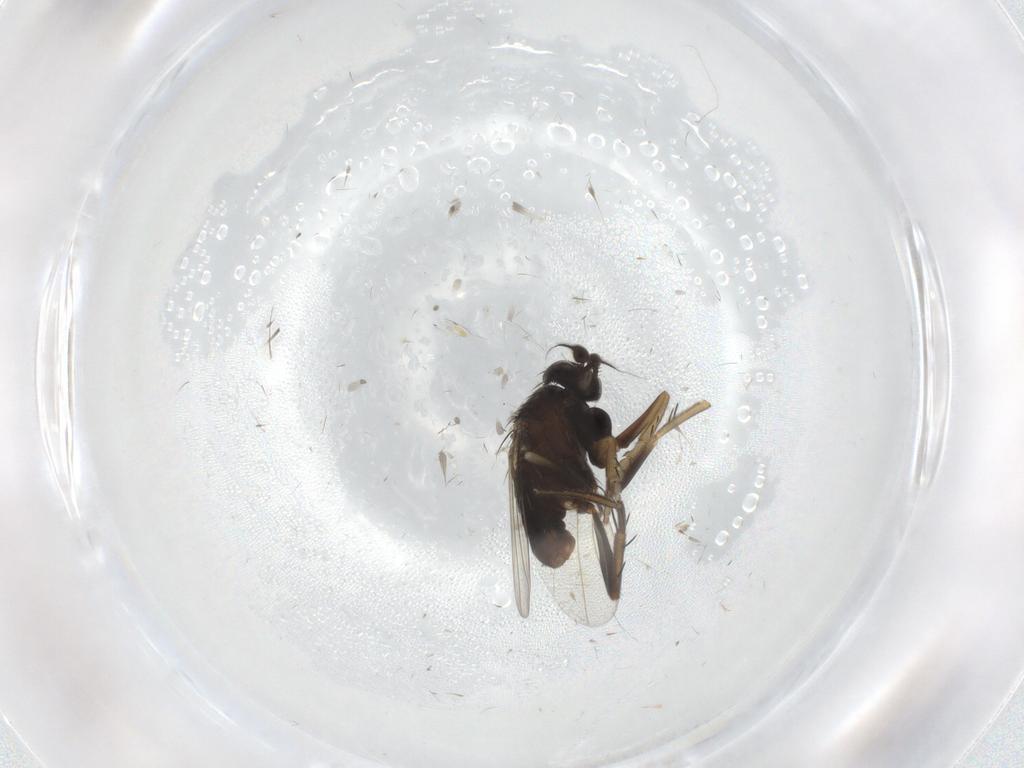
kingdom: Animalia
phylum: Arthropoda
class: Insecta
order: Diptera
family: Phoridae
